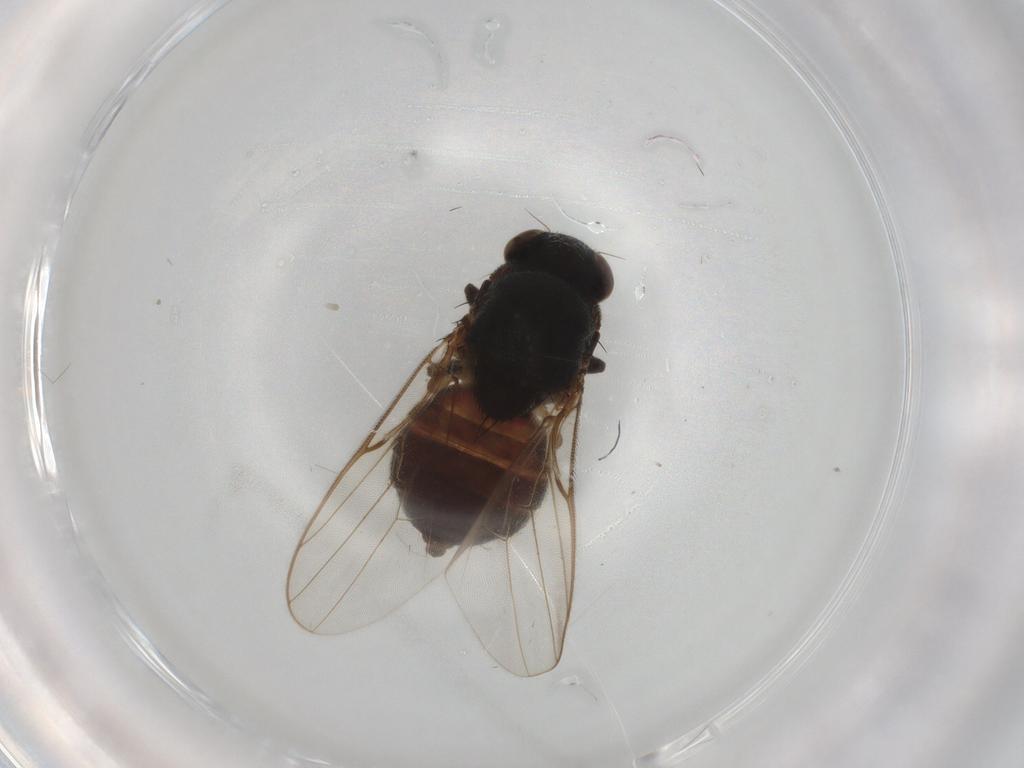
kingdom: Animalia
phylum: Arthropoda
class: Insecta
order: Diptera
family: Chloropidae
